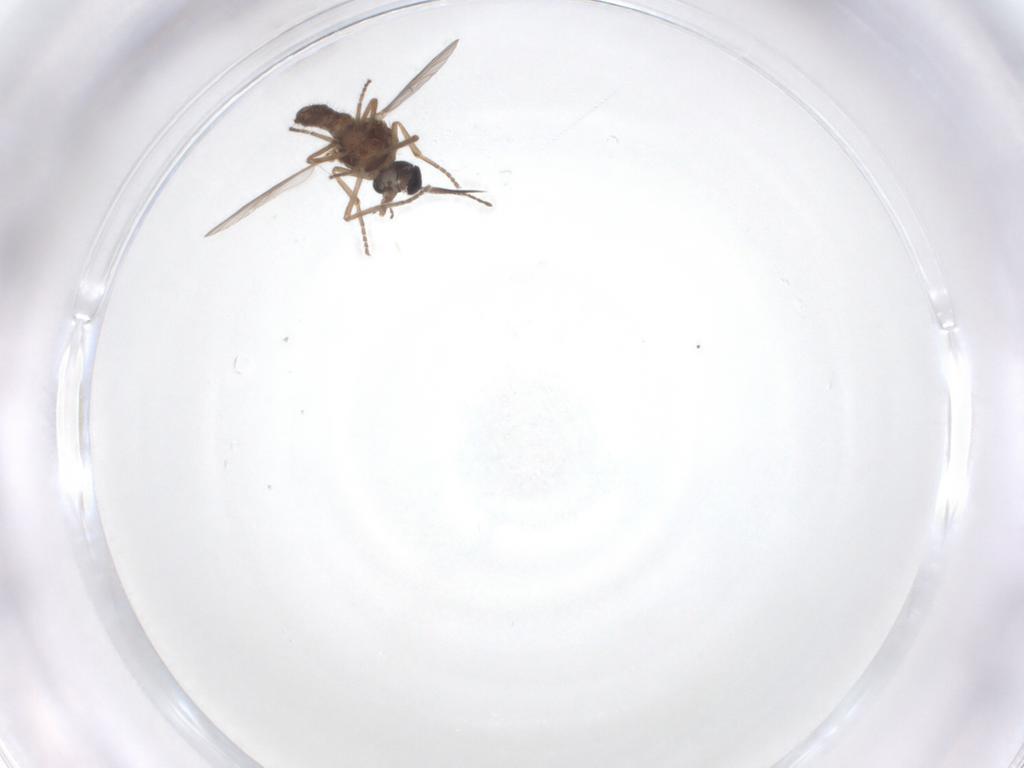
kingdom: Animalia
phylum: Arthropoda
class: Insecta
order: Diptera
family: Ceratopogonidae
